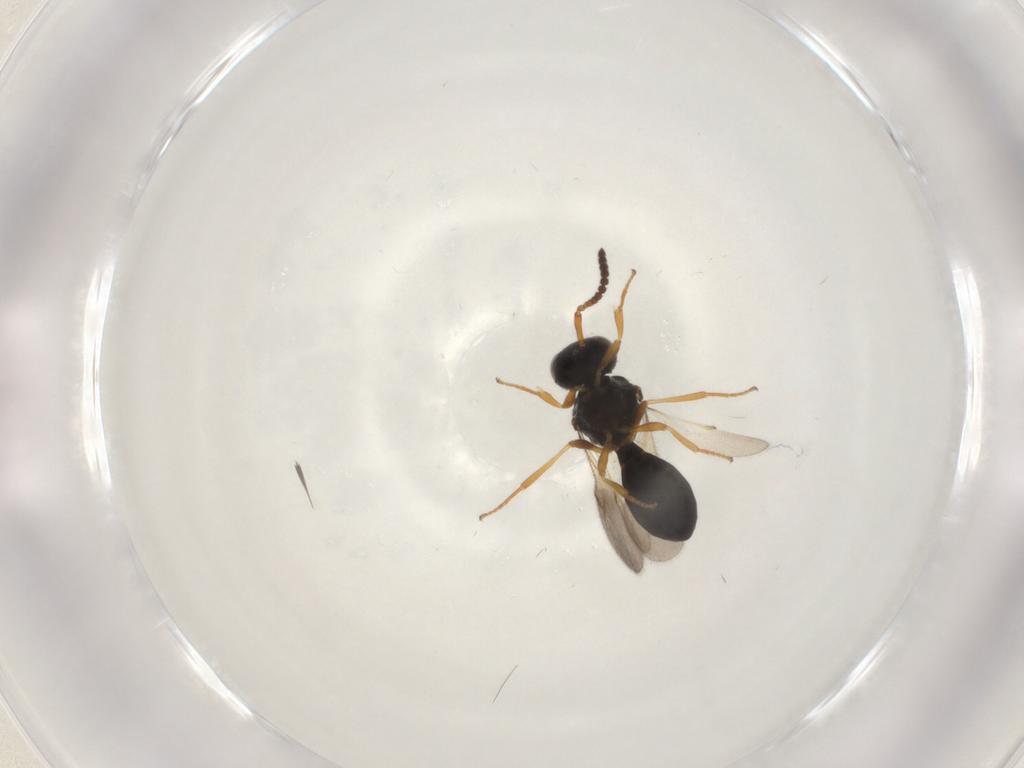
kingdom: Animalia
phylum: Arthropoda
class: Insecta
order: Hymenoptera
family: Scelionidae
